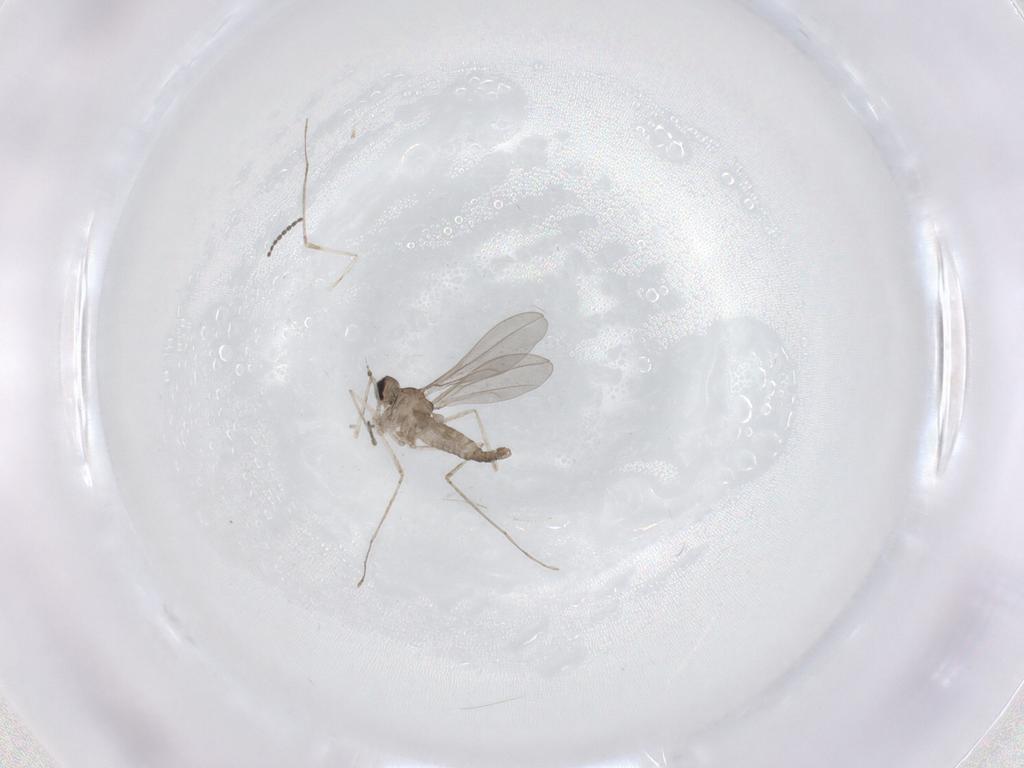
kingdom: Animalia
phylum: Arthropoda
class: Insecta
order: Diptera
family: Cecidomyiidae
